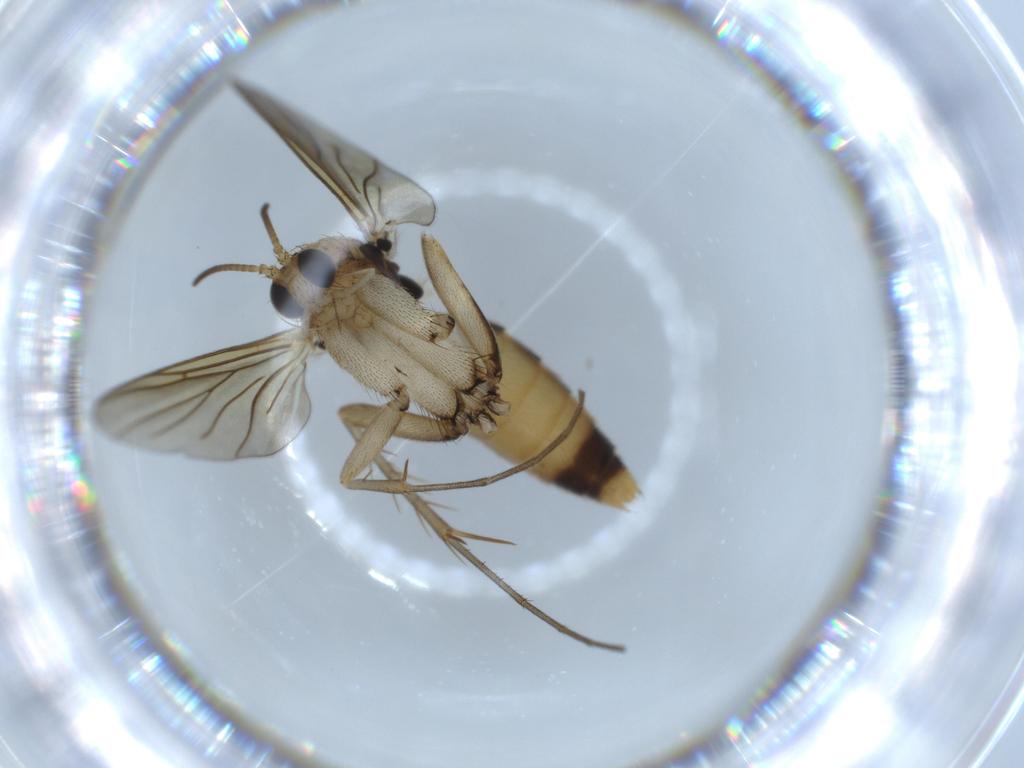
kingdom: Animalia
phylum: Arthropoda
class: Insecta
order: Diptera
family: Mycetophilidae
